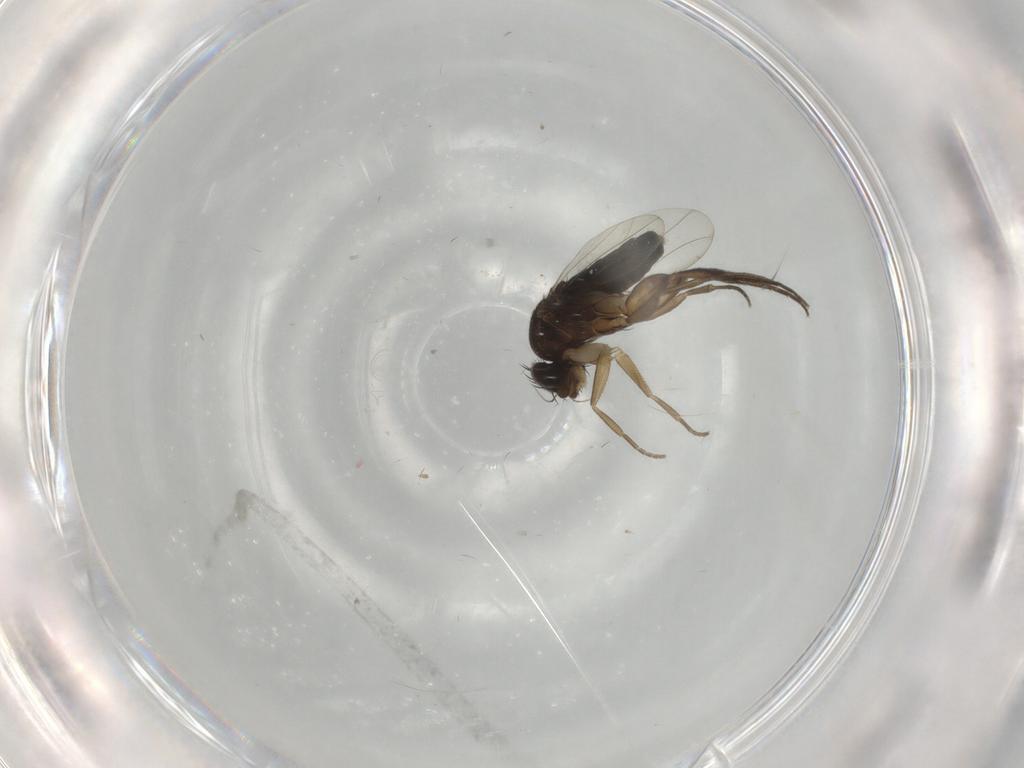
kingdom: Animalia
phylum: Arthropoda
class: Insecta
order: Diptera
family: Phoridae
